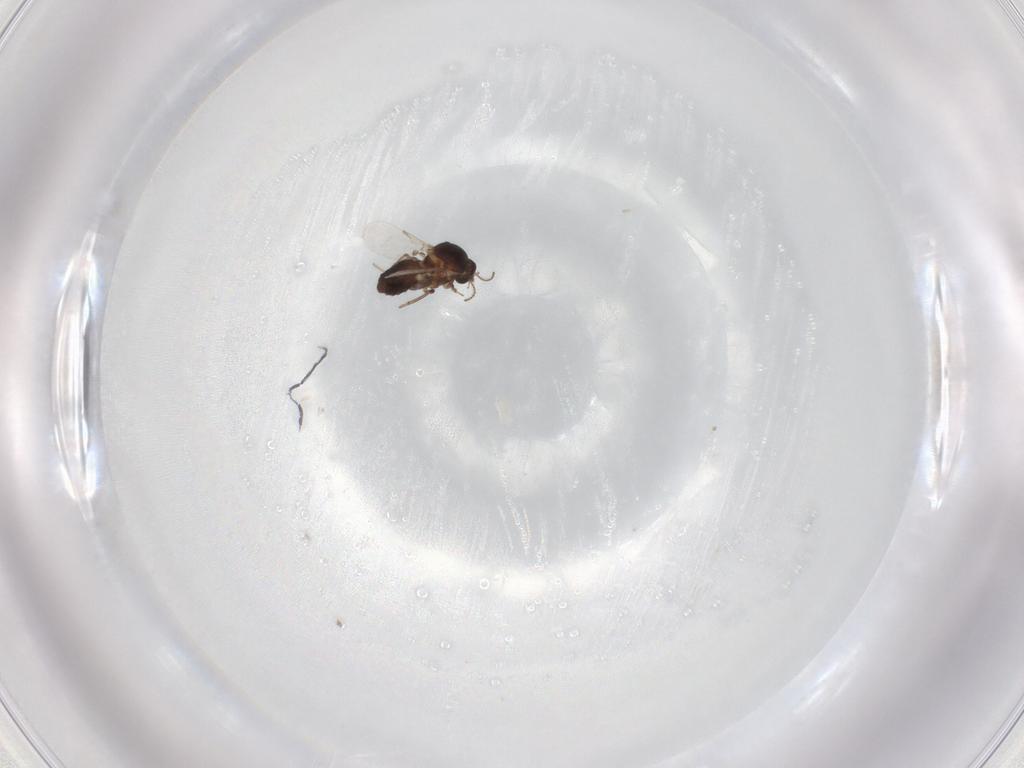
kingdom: Animalia
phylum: Arthropoda
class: Insecta
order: Diptera
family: Ceratopogonidae
